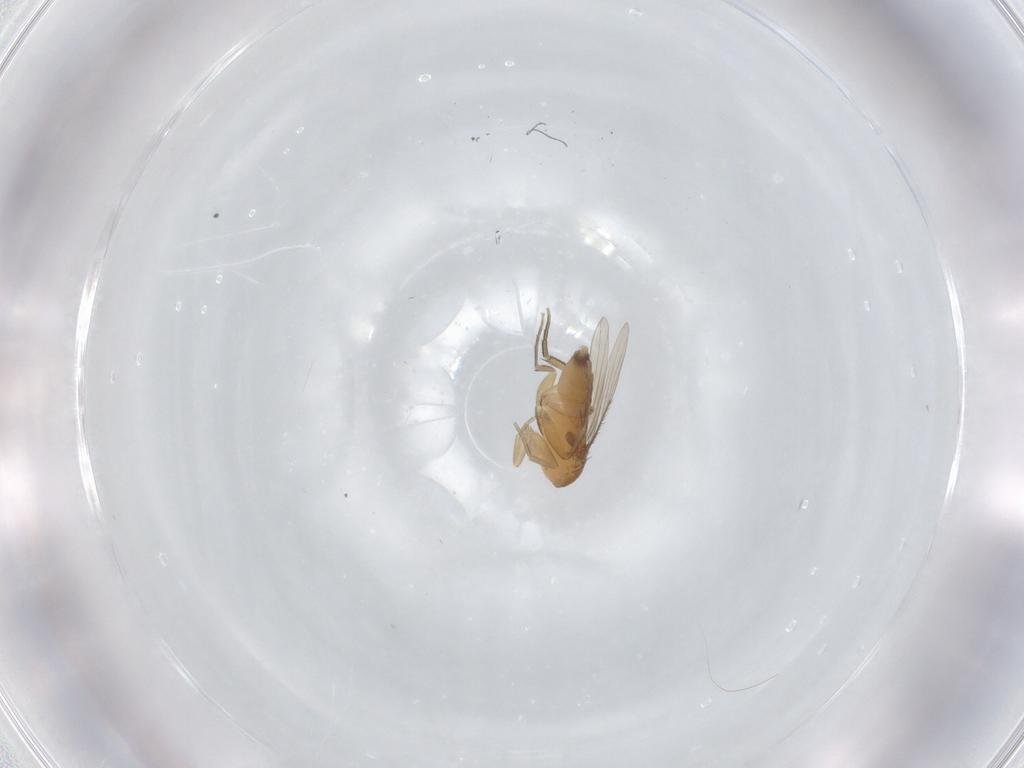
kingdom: Animalia
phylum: Arthropoda
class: Insecta
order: Diptera
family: Phoridae
